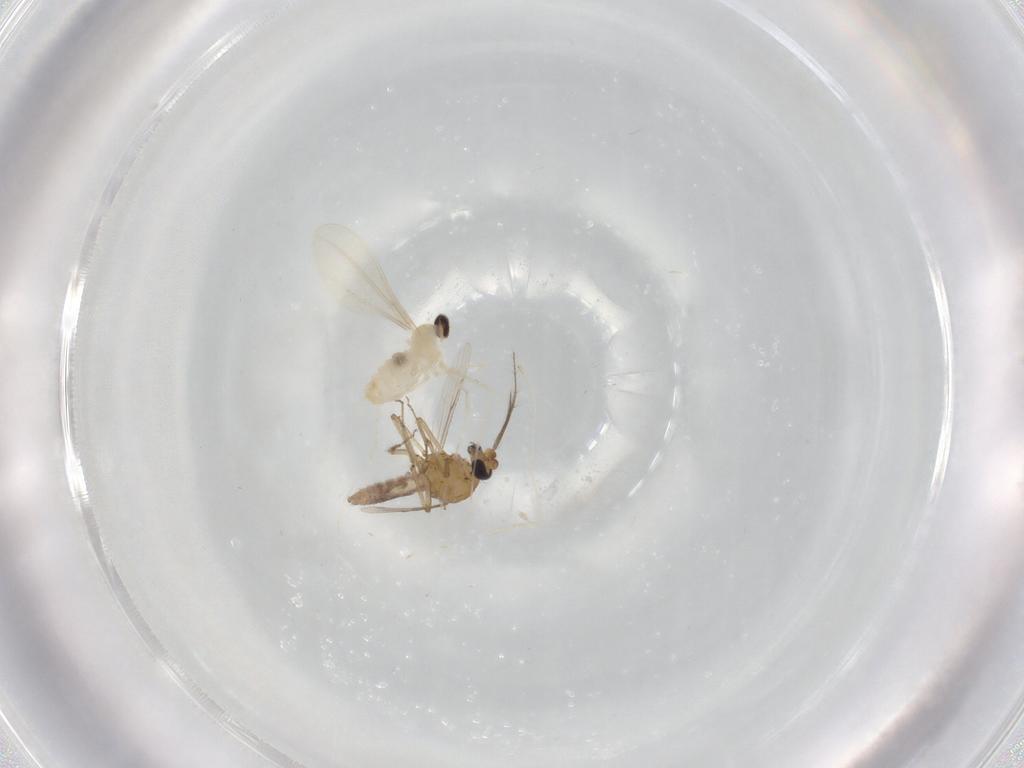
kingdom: Animalia
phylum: Arthropoda
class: Insecta
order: Diptera
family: Cecidomyiidae
